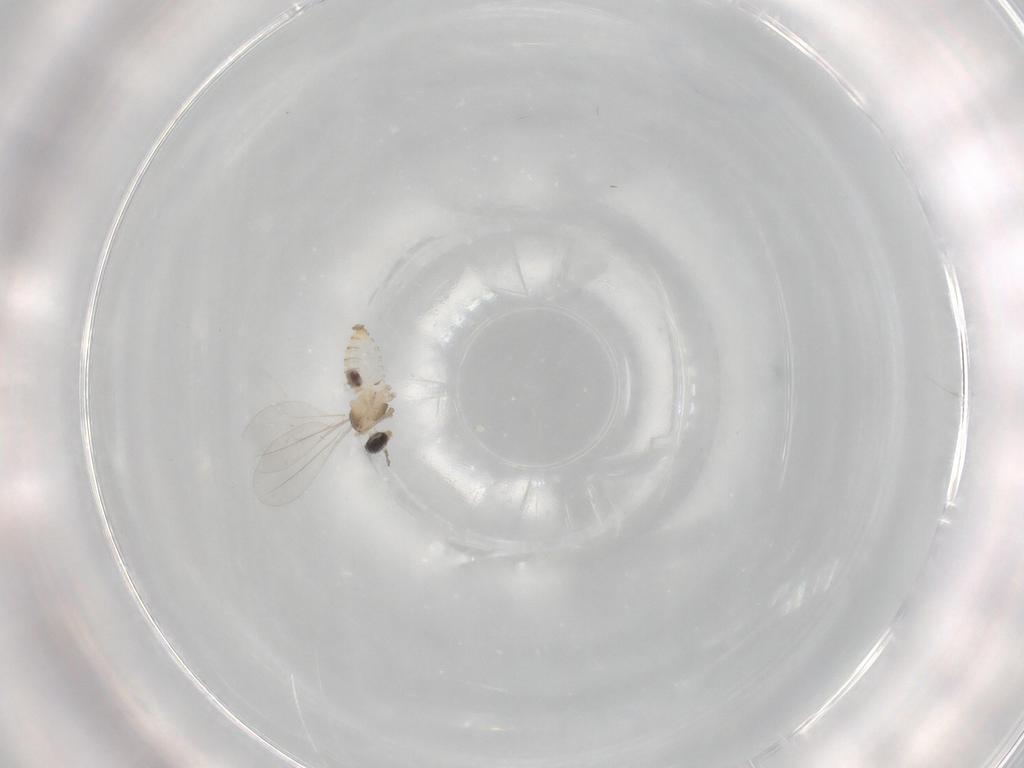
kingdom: Animalia
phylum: Arthropoda
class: Insecta
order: Diptera
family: Cecidomyiidae
